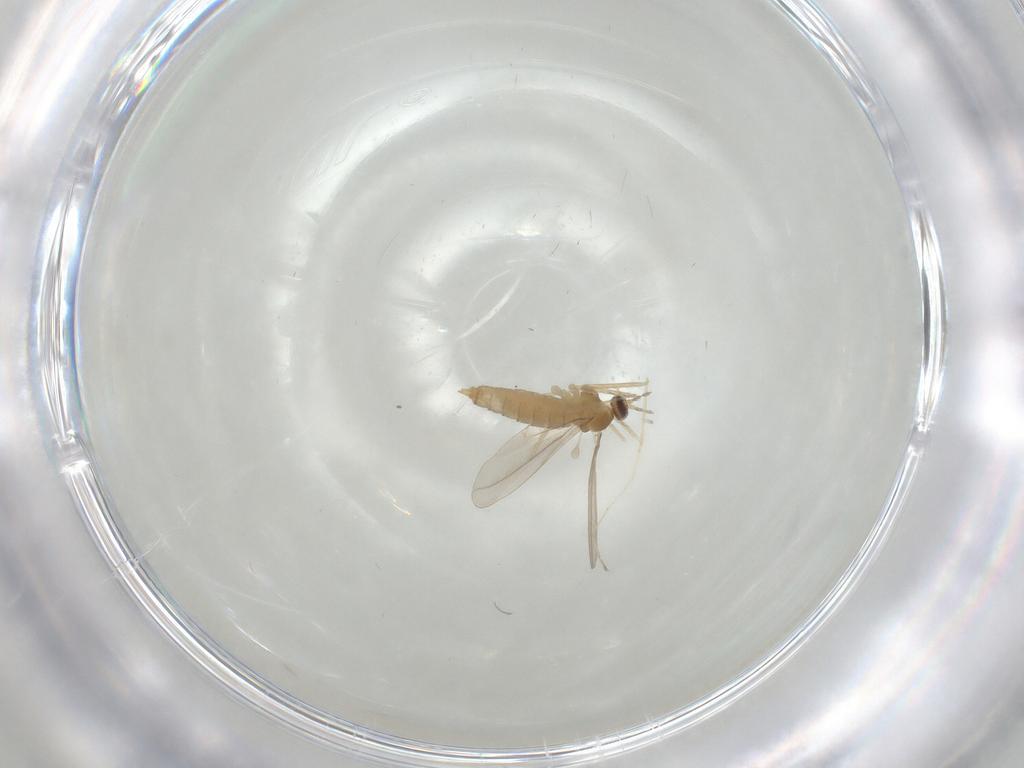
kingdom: Animalia
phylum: Arthropoda
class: Insecta
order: Diptera
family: Cecidomyiidae
